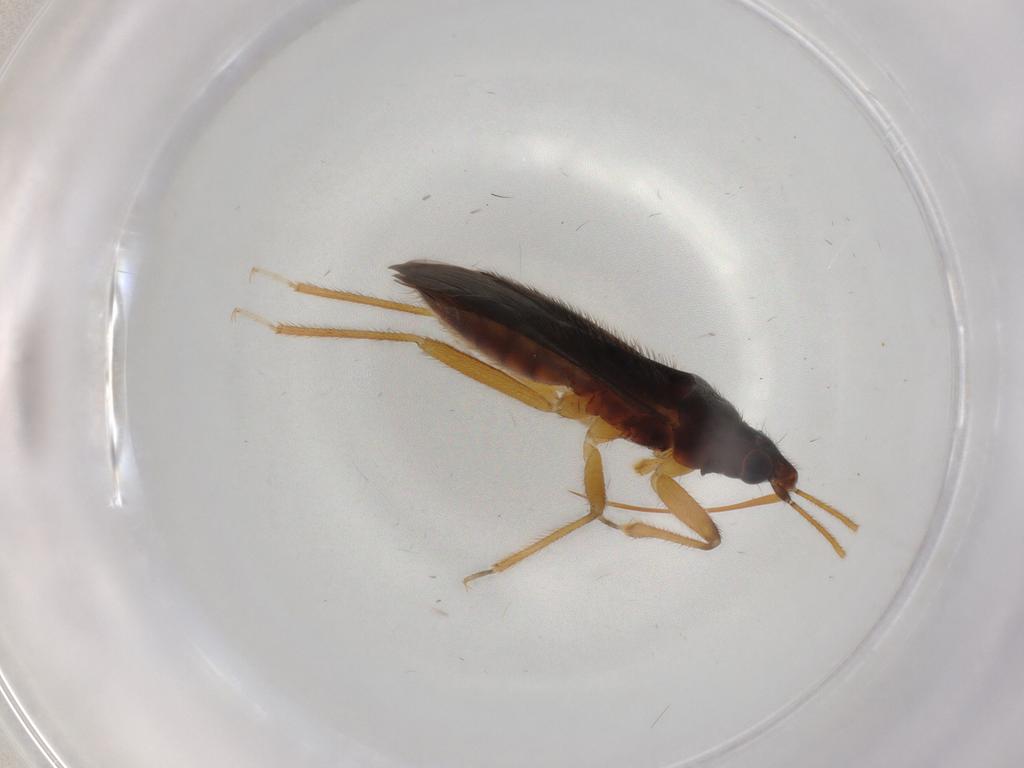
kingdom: Animalia
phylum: Arthropoda
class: Insecta
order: Hemiptera
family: Anthocoridae
